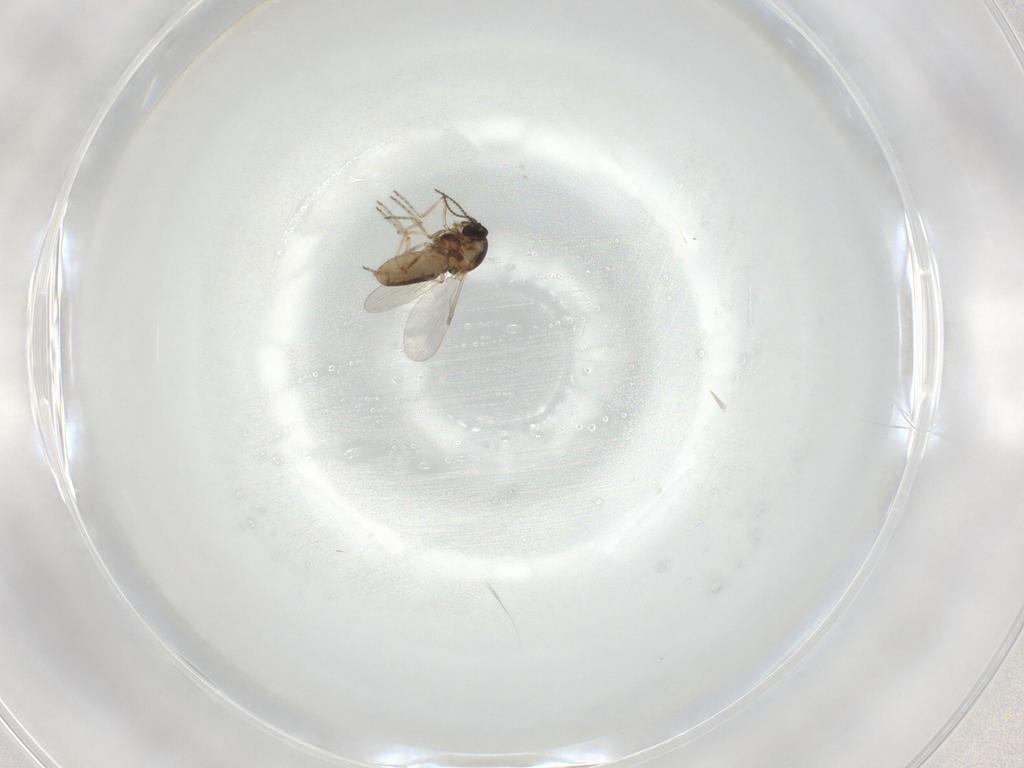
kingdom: Animalia
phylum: Arthropoda
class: Insecta
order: Diptera
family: Ceratopogonidae
